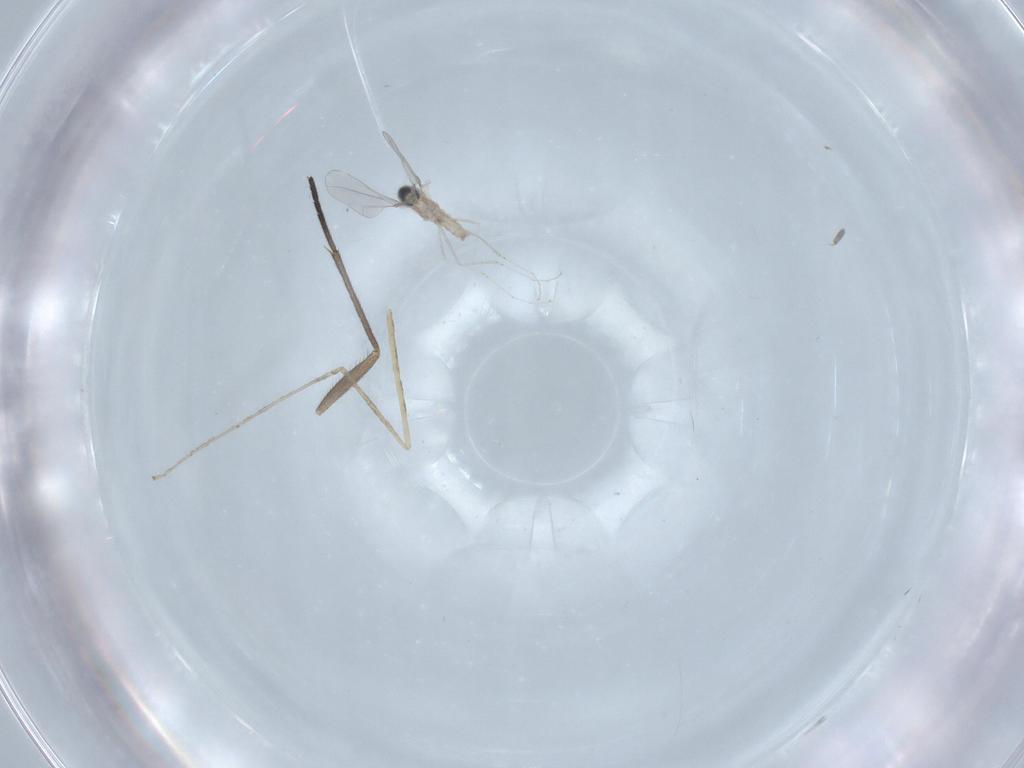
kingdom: Animalia
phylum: Arthropoda
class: Insecta
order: Diptera
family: Cecidomyiidae
